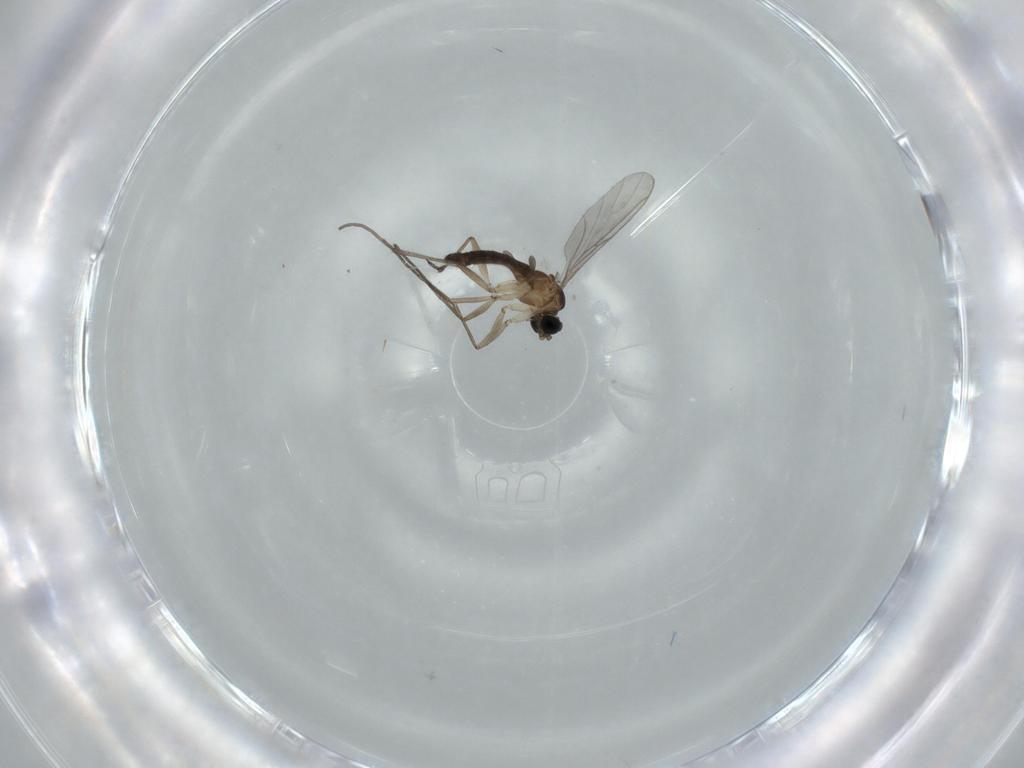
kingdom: Animalia
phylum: Arthropoda
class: Insecta
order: Diptera
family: Sciaridae
